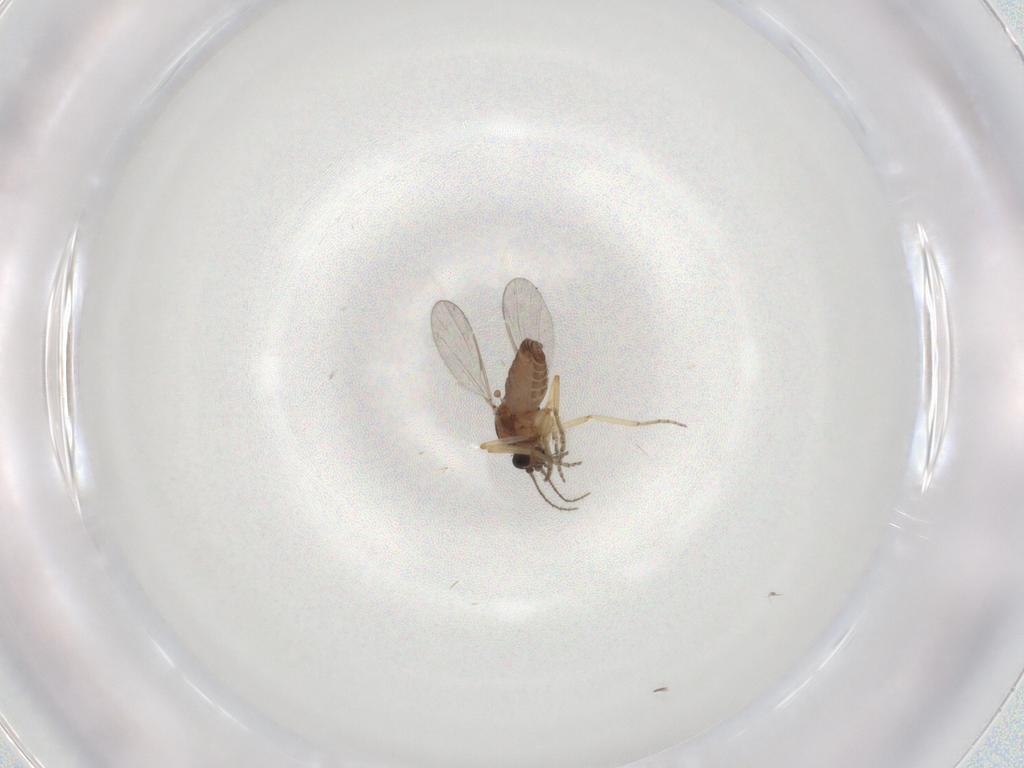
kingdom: Animalia
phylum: Arthropoda
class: Insecta
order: Diptera
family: Ceratopogonidae
